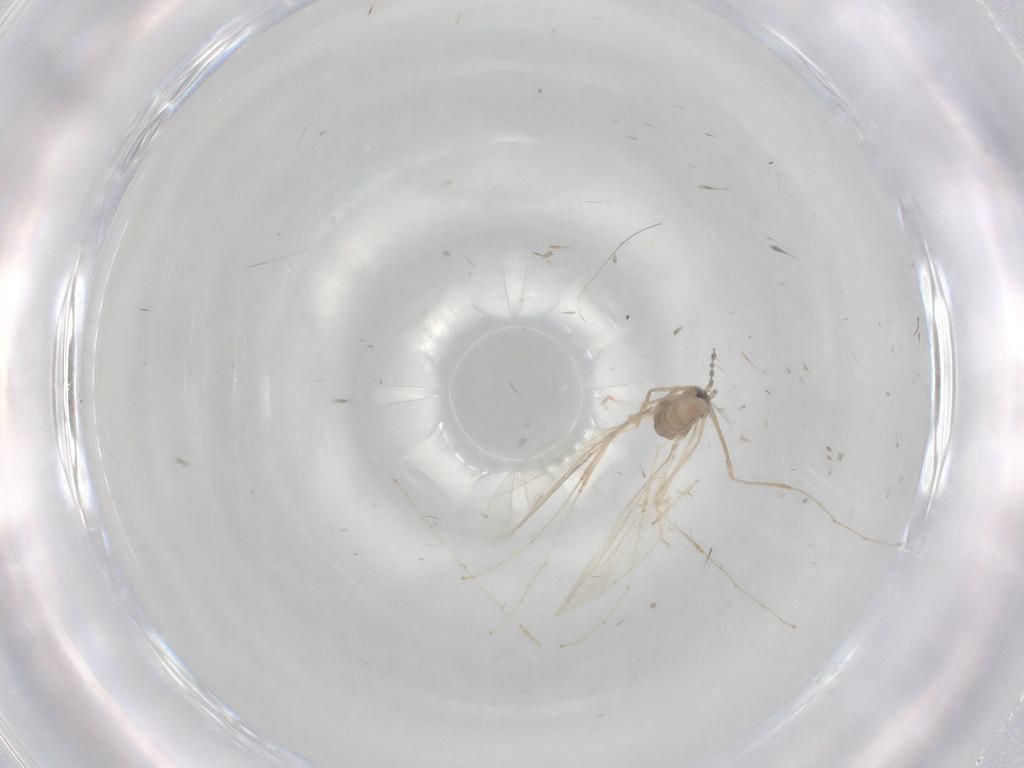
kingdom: Animalia
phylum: Arthropoda
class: Insecta
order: Diptera
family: Cecidomyiidae
